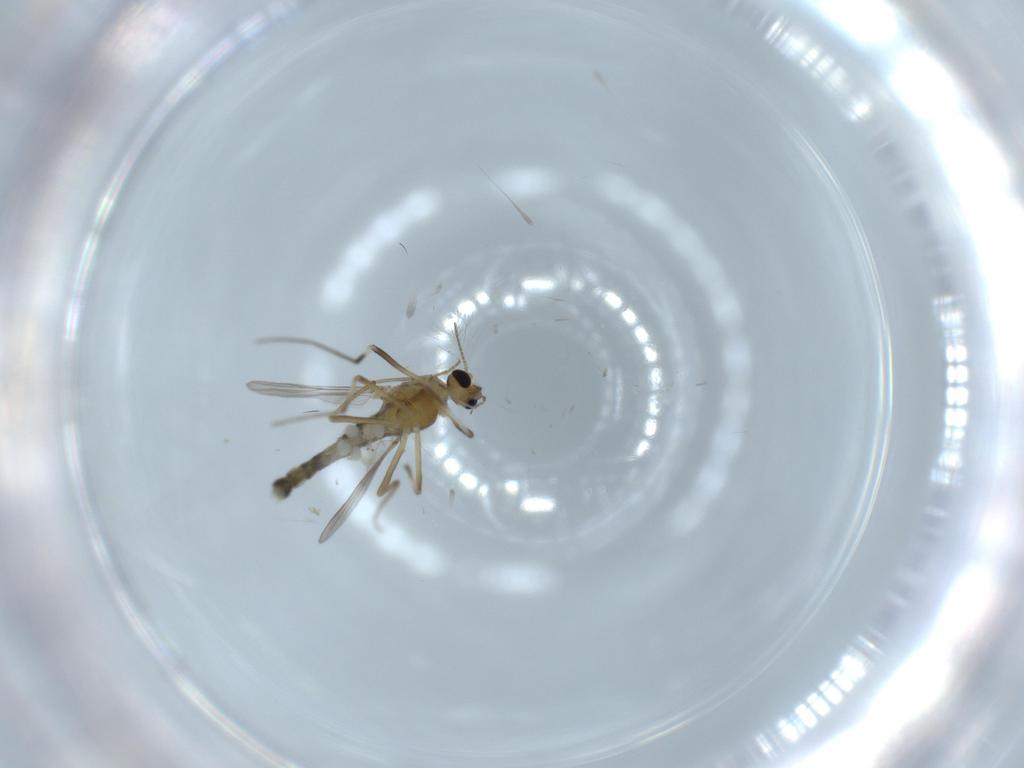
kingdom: Animalia
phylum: Arthropoda
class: Insecta
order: Diptera
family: Chironomidae
